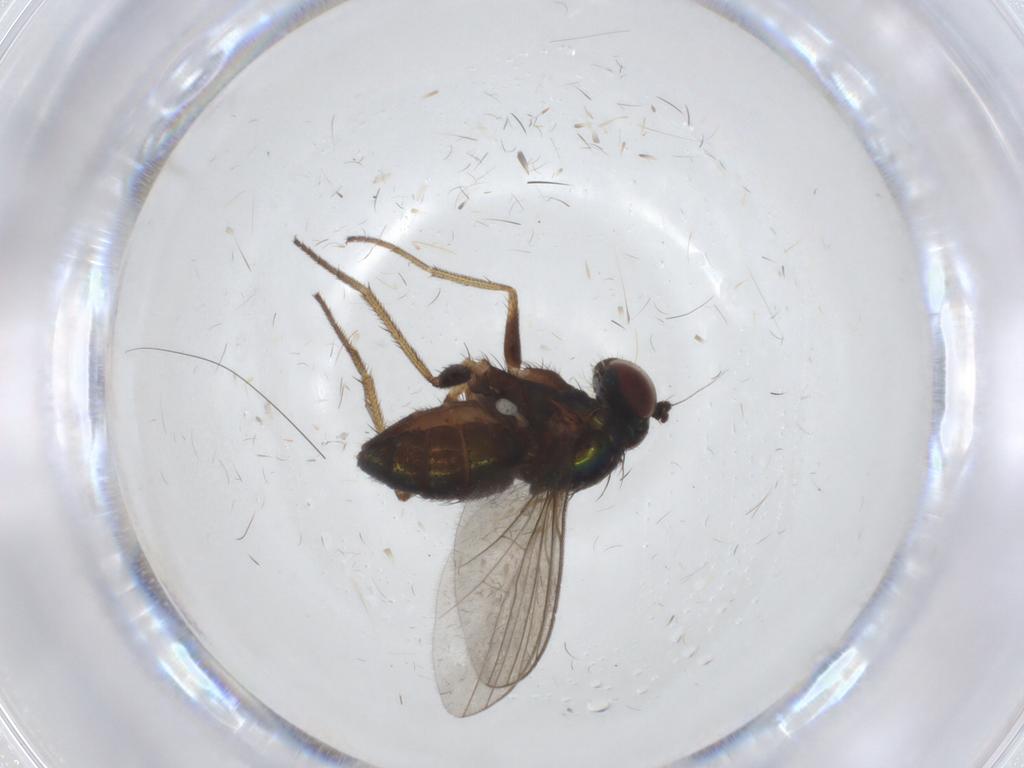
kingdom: Animalia
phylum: Arthropoda
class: Insecta
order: Diptera
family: Dolichopodidae
